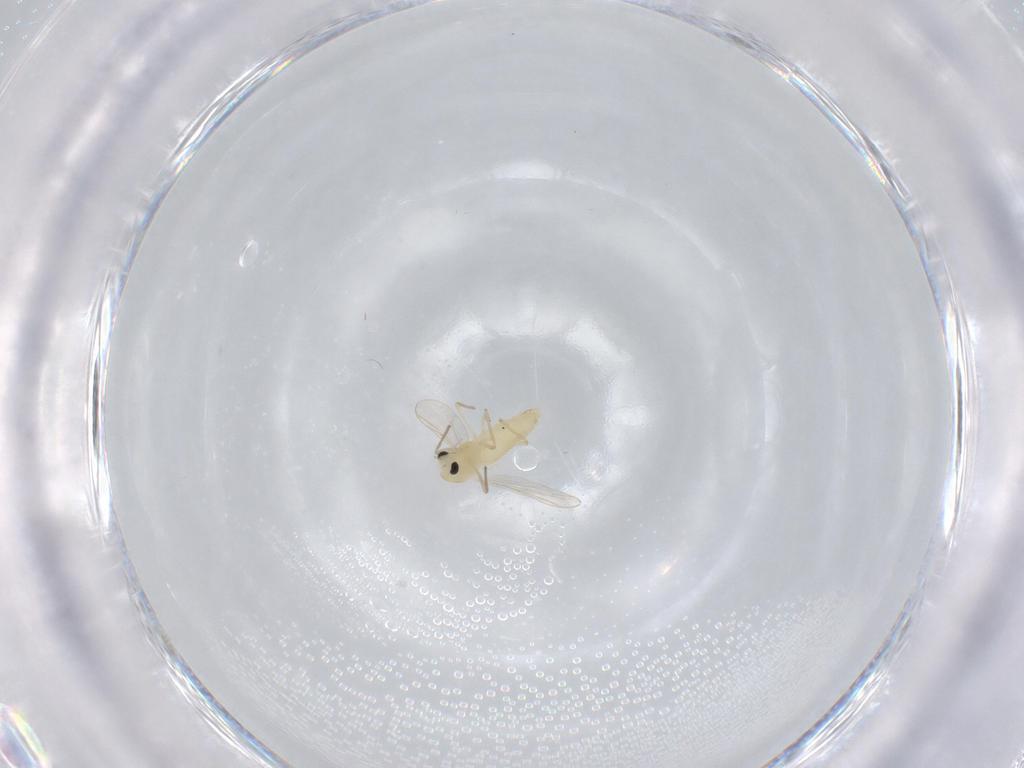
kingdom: Animalia
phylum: Arthropoda
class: Insecta
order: Diptera
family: Chironomidae
